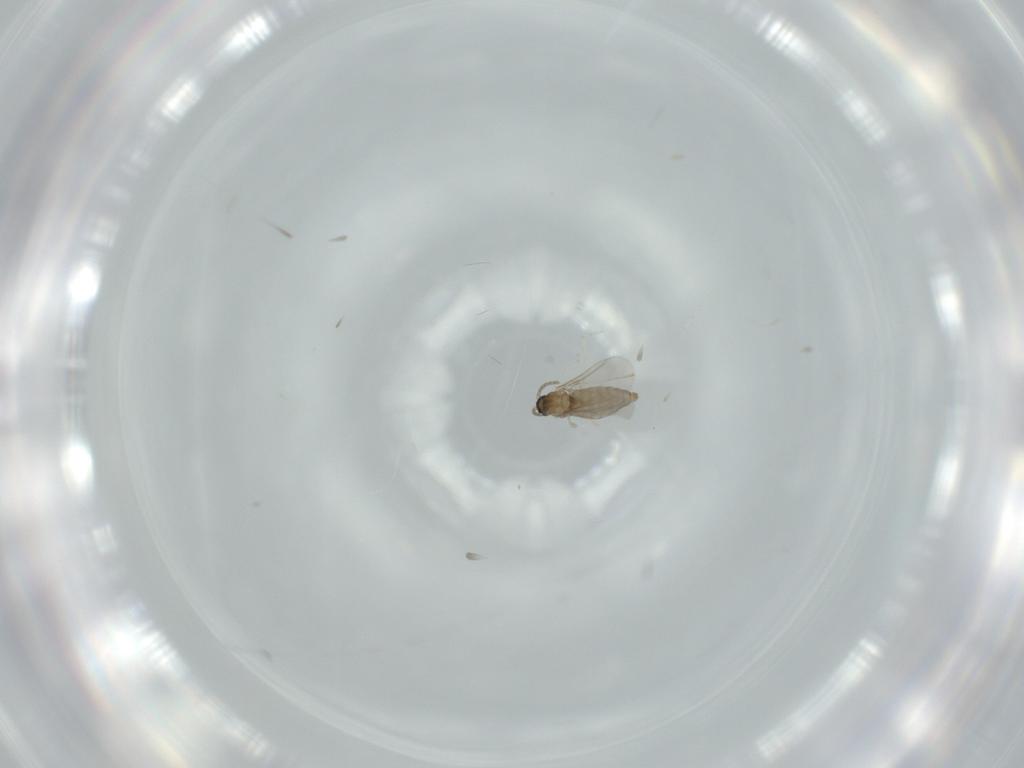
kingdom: Animalia
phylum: Arthropoda
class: Insecta
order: Diptera
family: Cecidomyiidae
